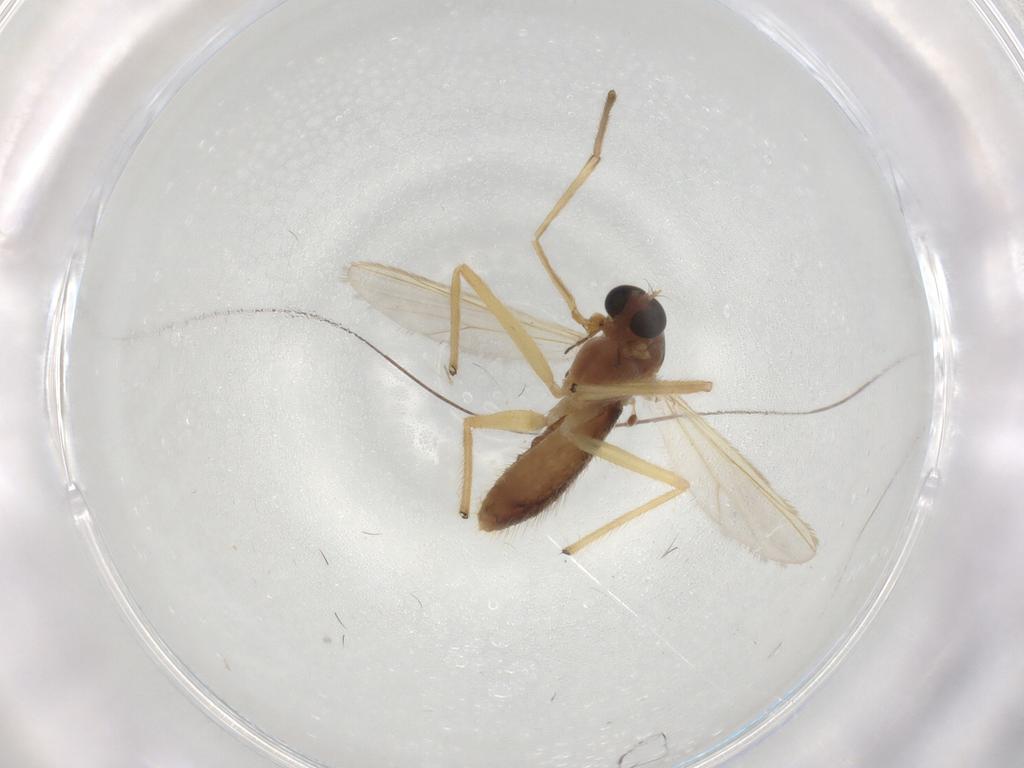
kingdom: Animalia
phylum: Arthropoda
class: Insecta
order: Diptera
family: Chironomidae
